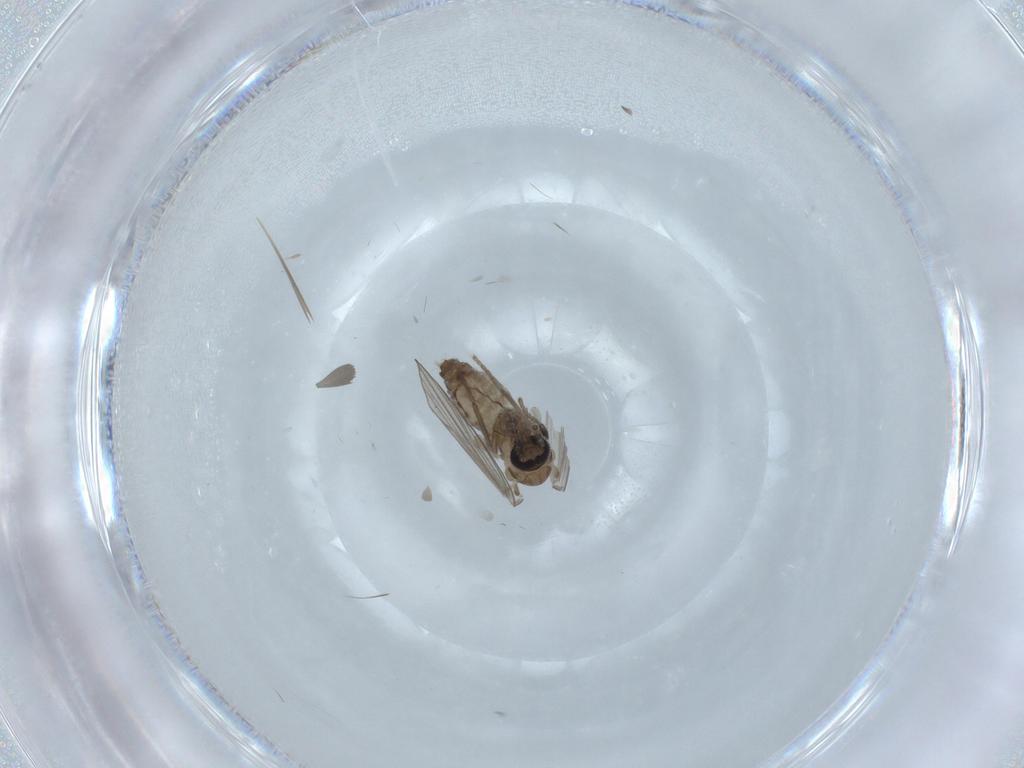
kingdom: Animalia
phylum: Arthropoda
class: Insecta
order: Diptera
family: Psychodidae
